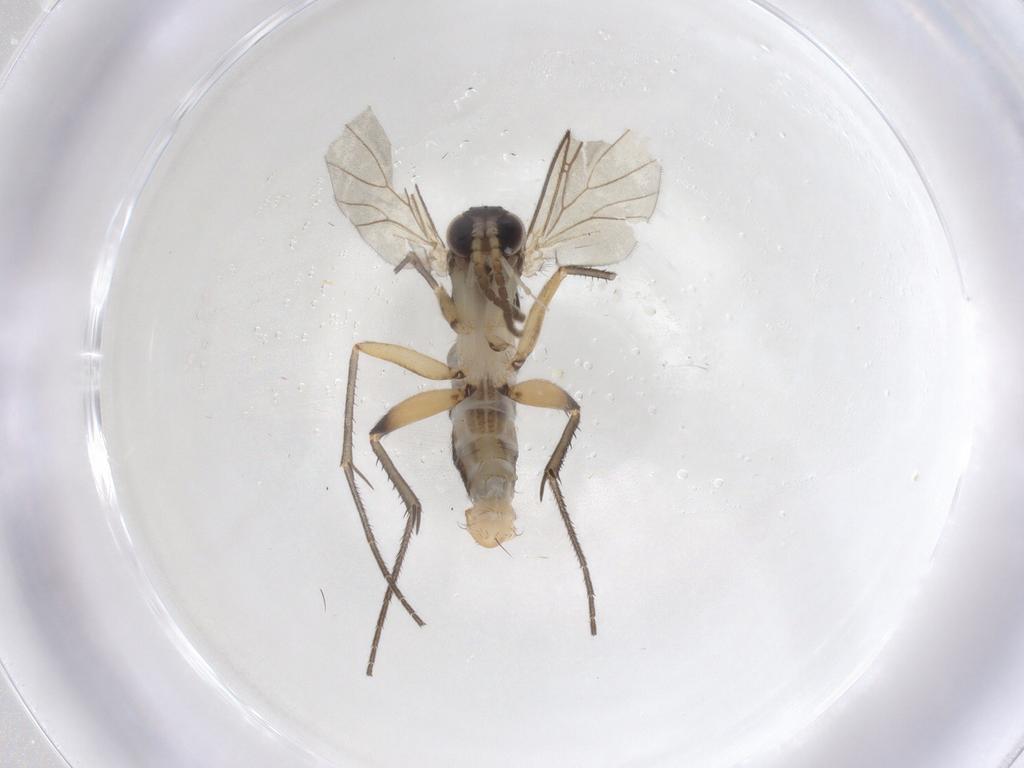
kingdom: Animalia
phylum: Arthropoda
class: Insecta
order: Diptera
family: Mycetophilidae
